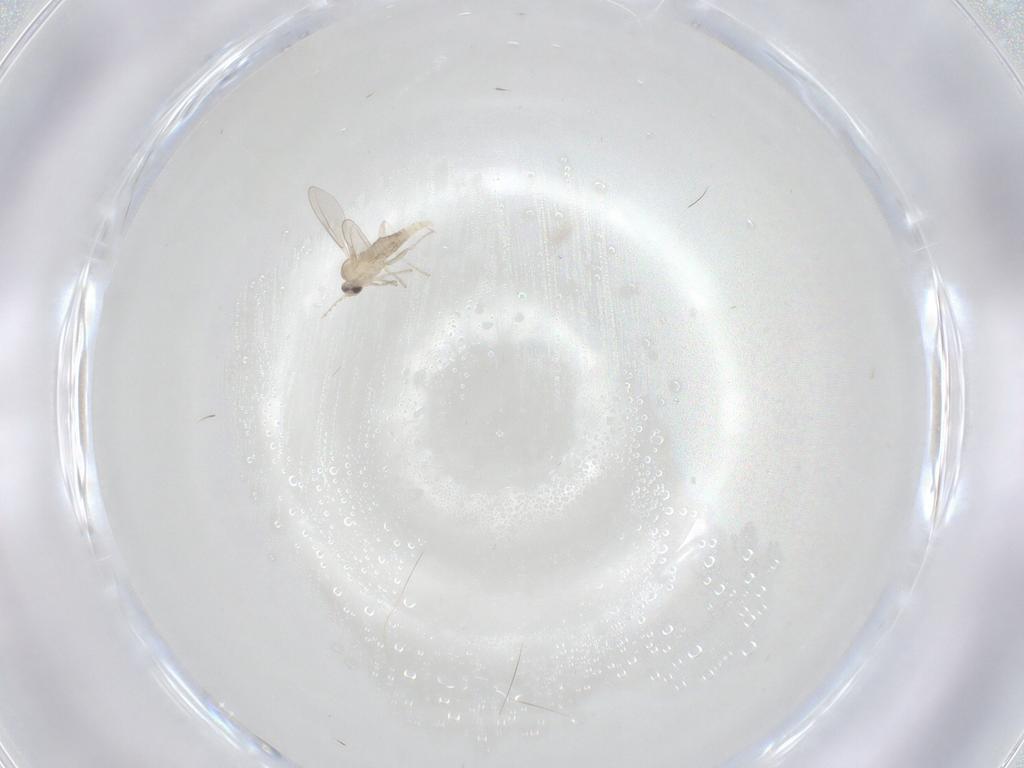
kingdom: Animalia
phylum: Arthropoda
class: Insecta
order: Diptera
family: Cecidomyiidae
